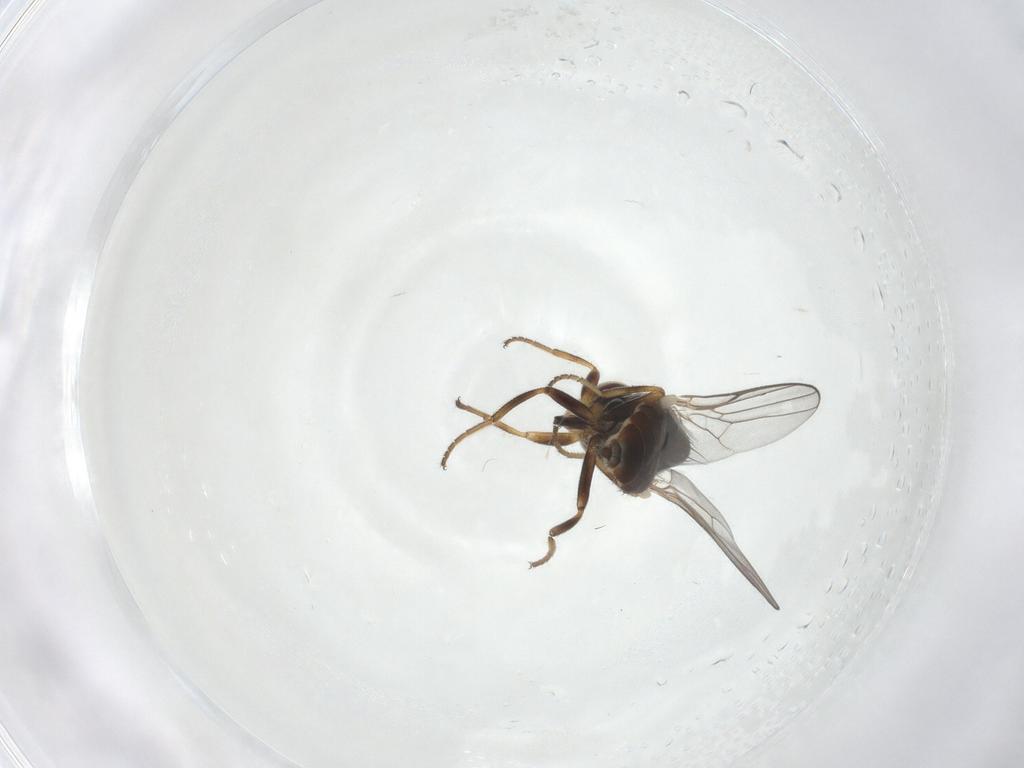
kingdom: Animalia
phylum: Arthropoda
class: Insecta
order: Diptera
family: Chloropidae
